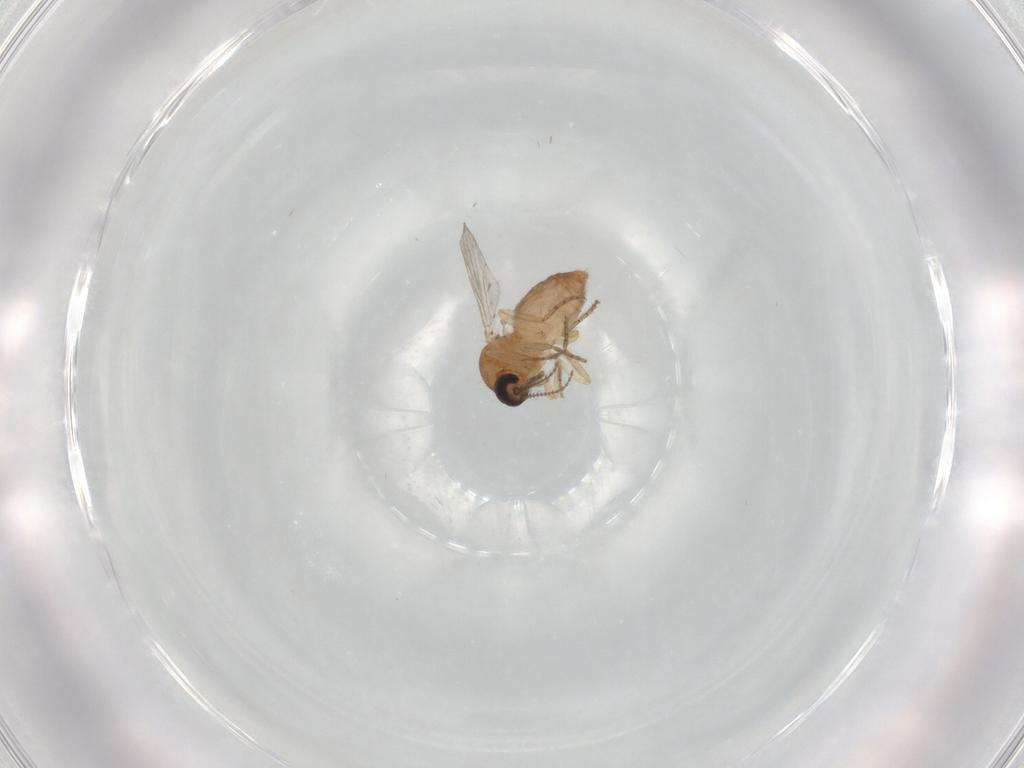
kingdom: Animalia
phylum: Arthropoda
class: Insecta
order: Diptera
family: Ceratopogonidae
